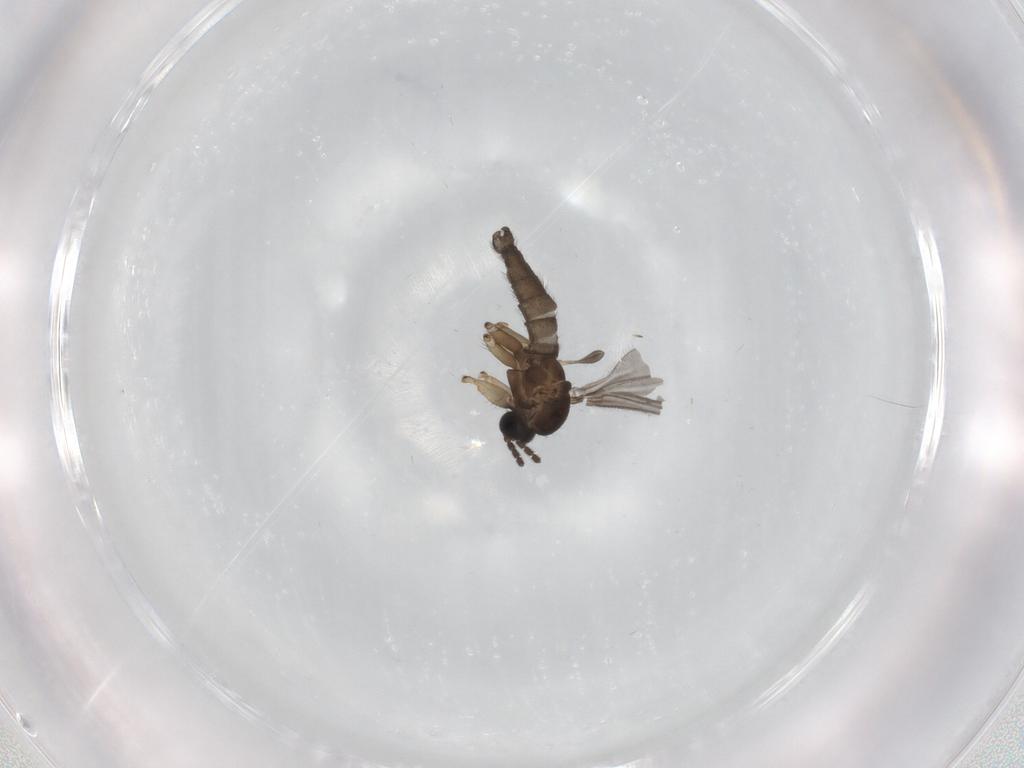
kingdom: Animalia
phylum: Arthropoda
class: Insecta
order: Diptera
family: Sciaridae
